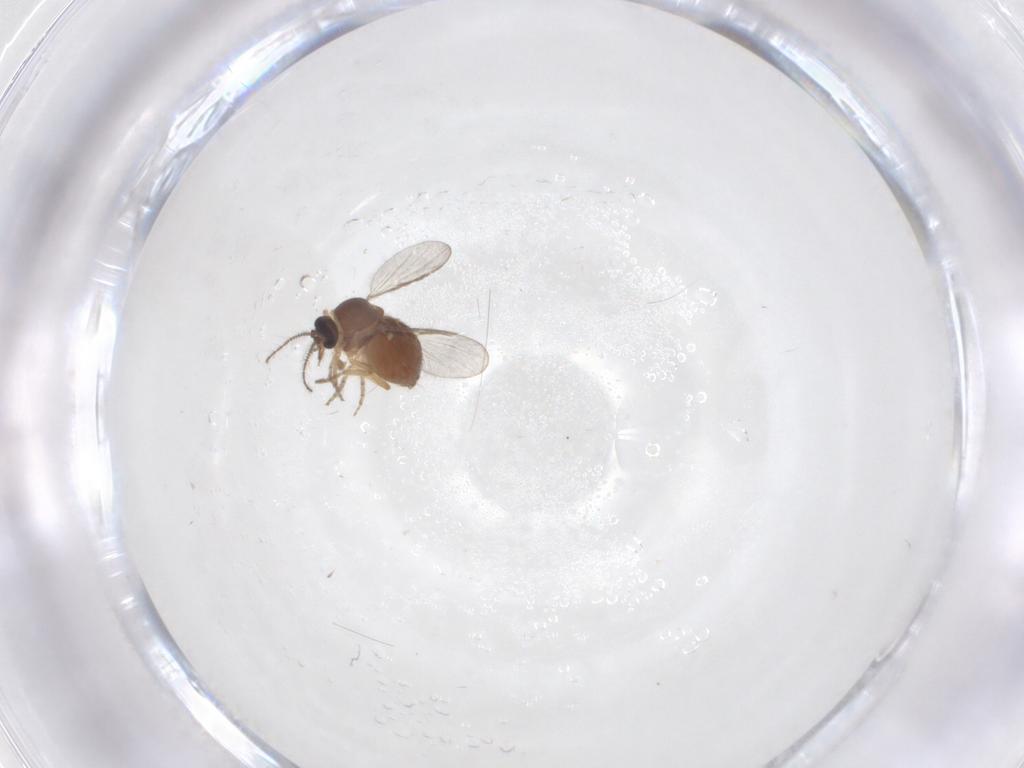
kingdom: Animalia
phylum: Arthropoda
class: Insecta
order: Diptera
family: Ceratopogonidae
